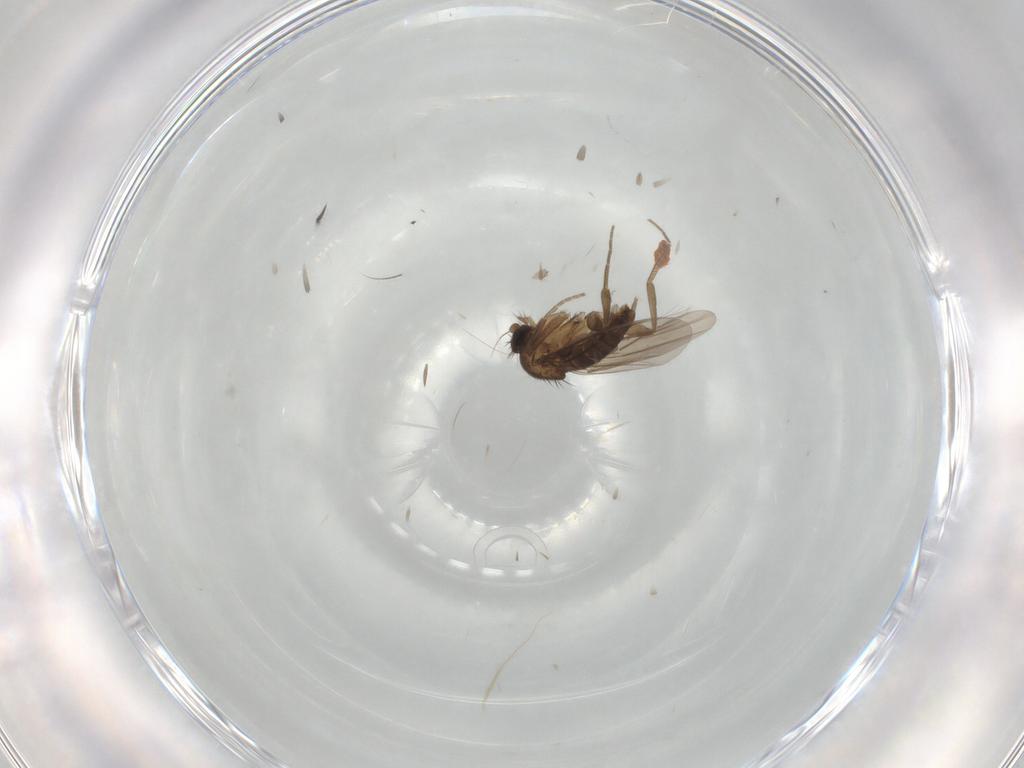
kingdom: Animalia
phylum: Arthropoda
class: Insecta
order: Diptera
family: Phoridae
